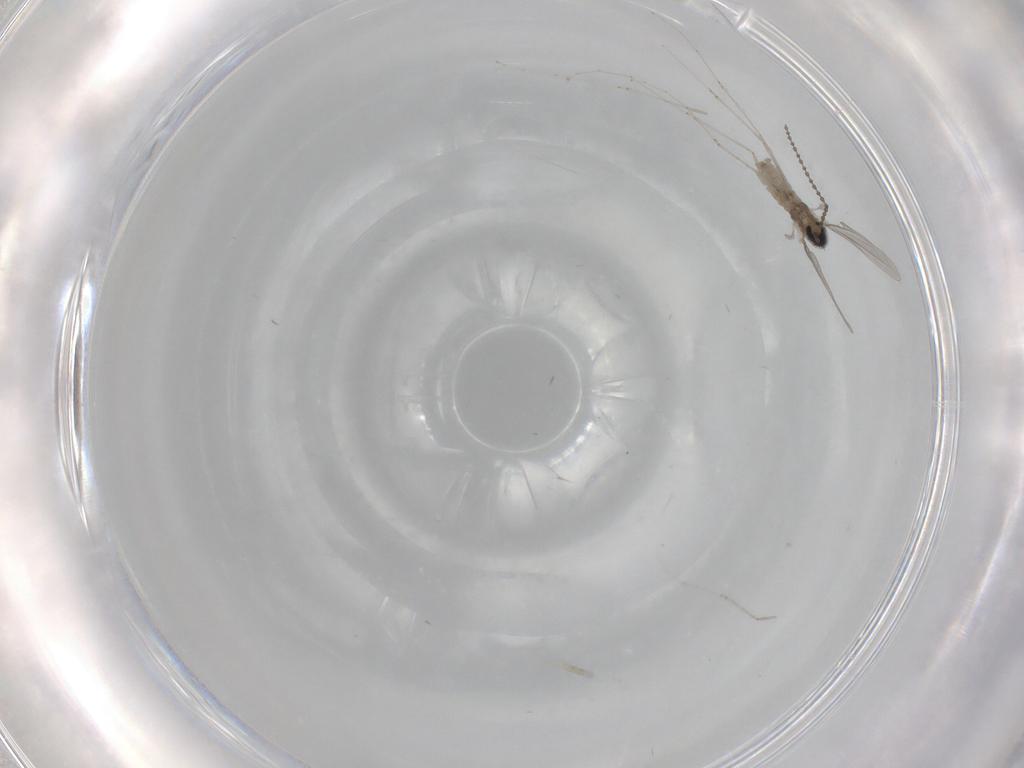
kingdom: Animalia
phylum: Arthropoda
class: Insecta
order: Diptera
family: Cecidomyiidae
